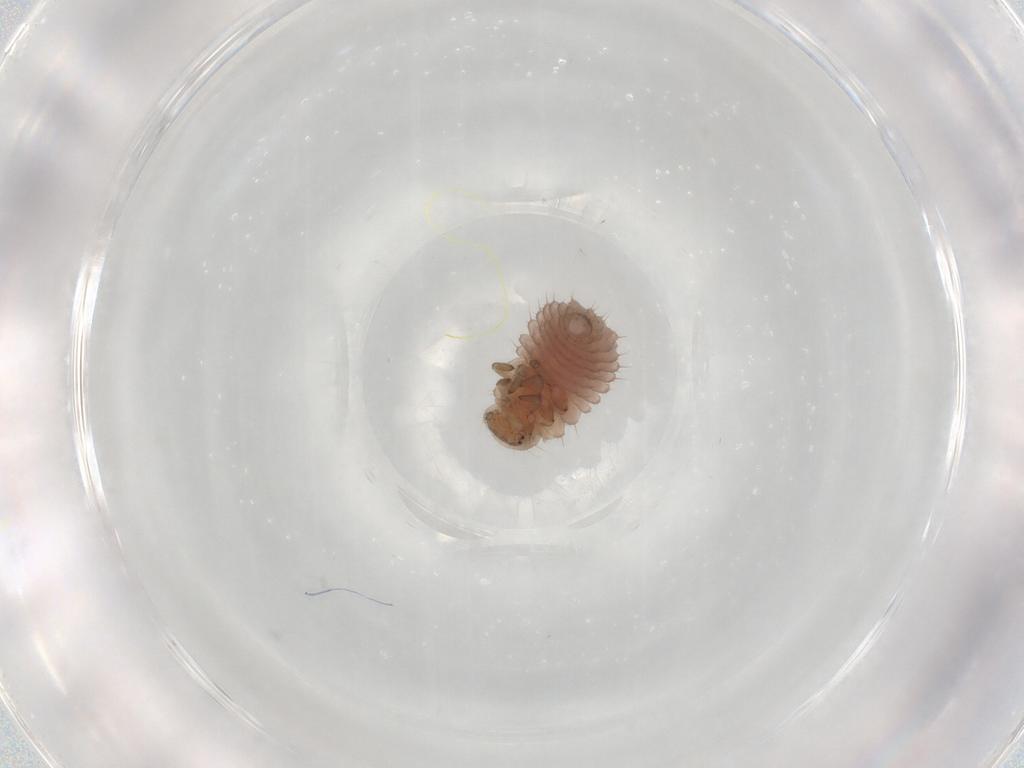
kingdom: Animalia
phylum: Arthropoda
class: Insecta
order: Coleoptera
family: Coccinellidae
